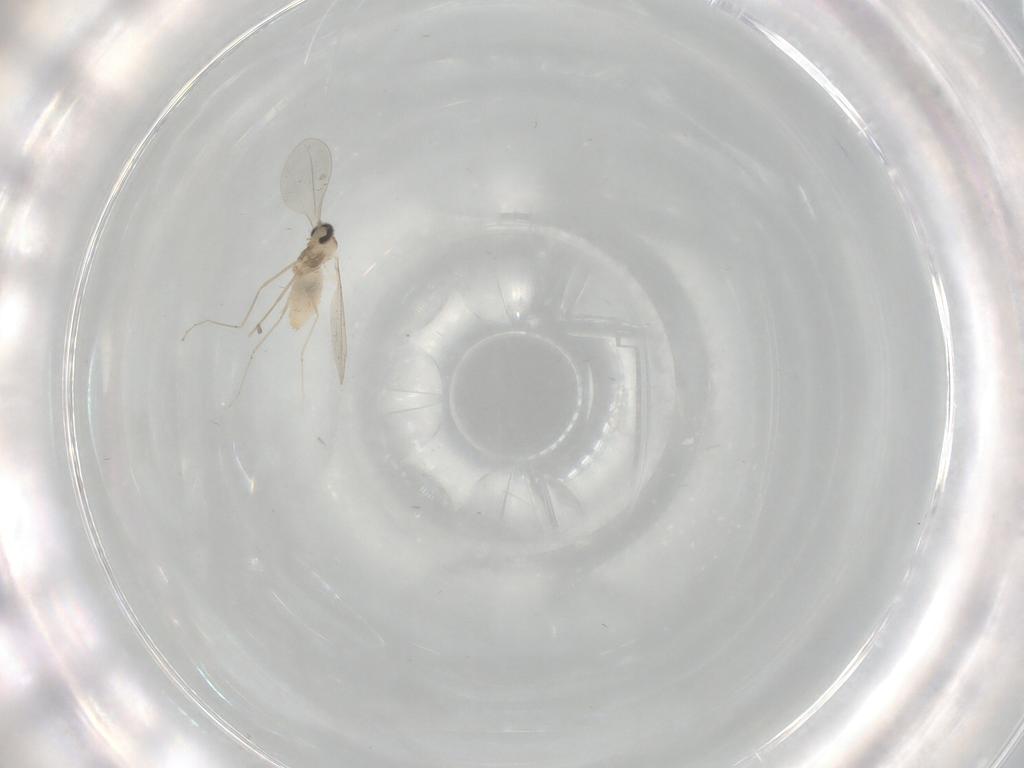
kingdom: Animalia
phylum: Arthropoda
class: Insecta
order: Diptera
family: Cecidomyiidae
